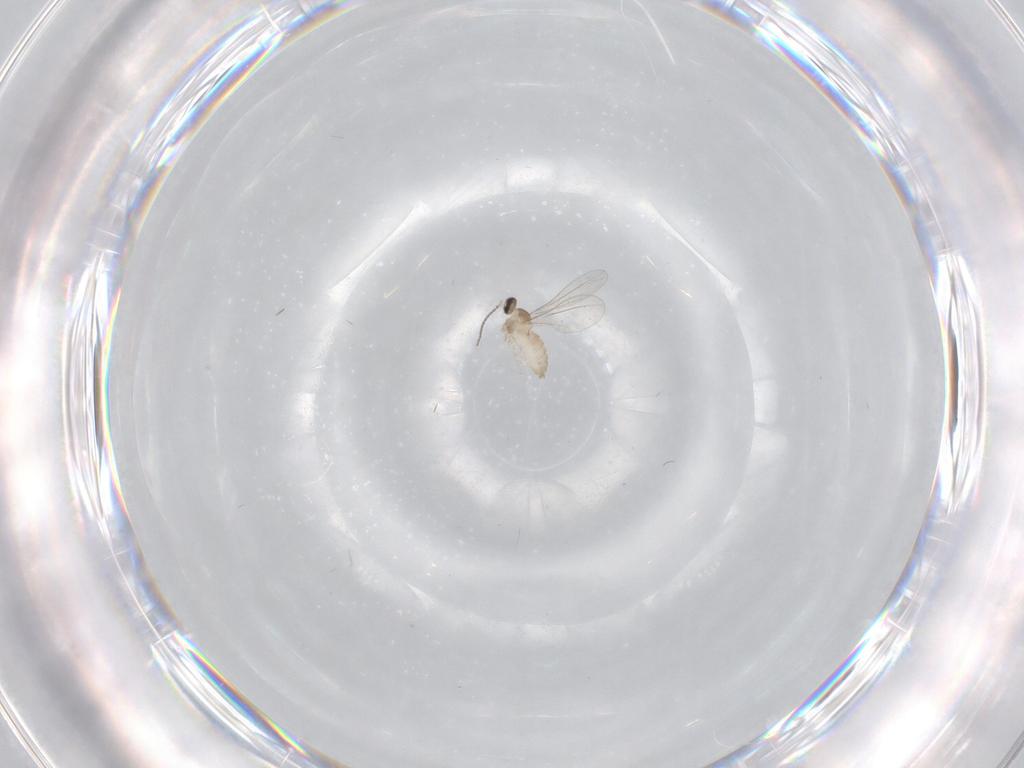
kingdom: Animalia
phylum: Arthropoda
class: Insecta
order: Diptera
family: Cecidomyiidae
